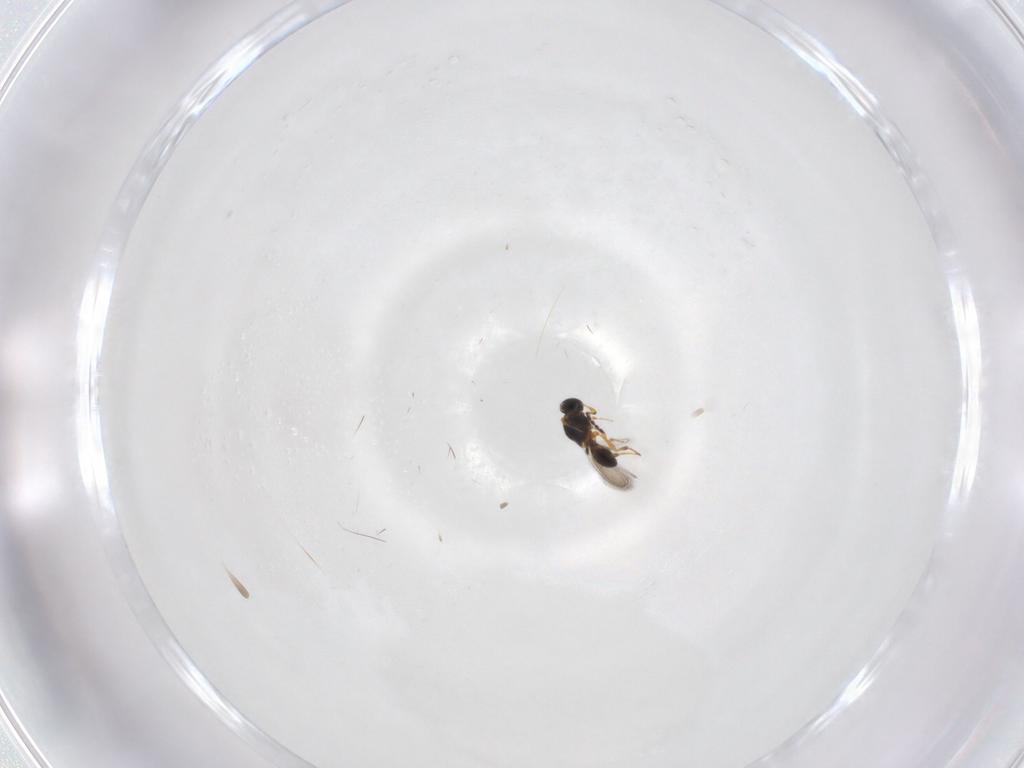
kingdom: Animalia
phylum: Arthropoda
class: Insecta
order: Hymenoptera
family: Platygastridae
